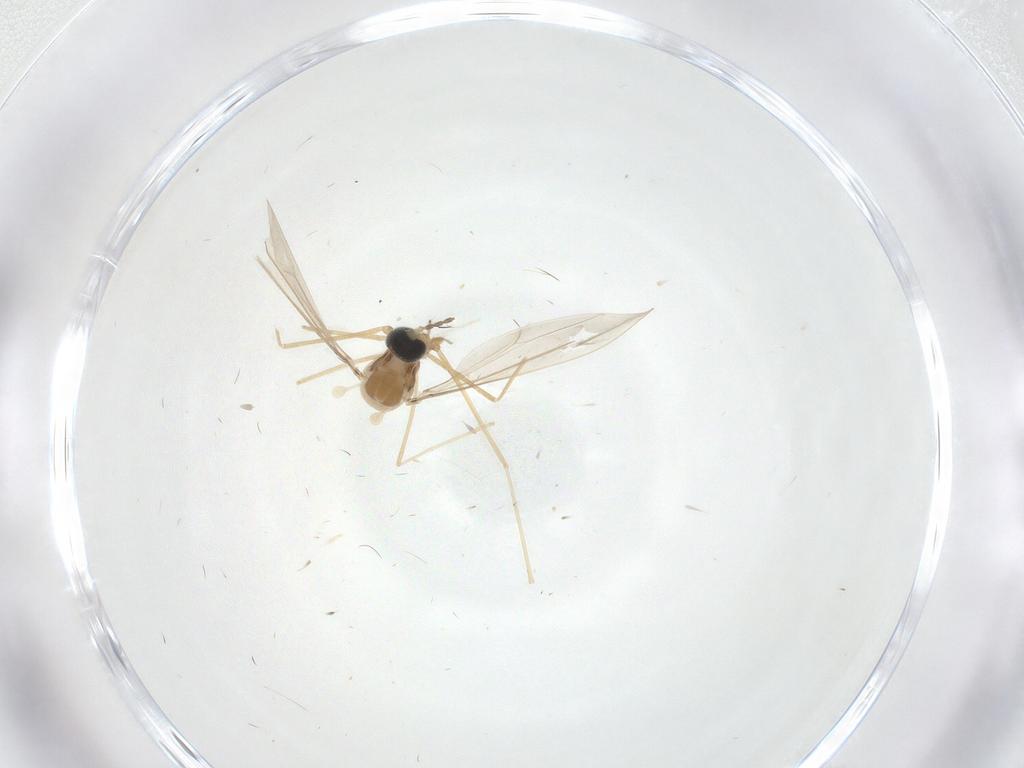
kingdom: Animalia
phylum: Arthropoda
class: Insecta
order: Diptera
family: Cecidomyiidae
